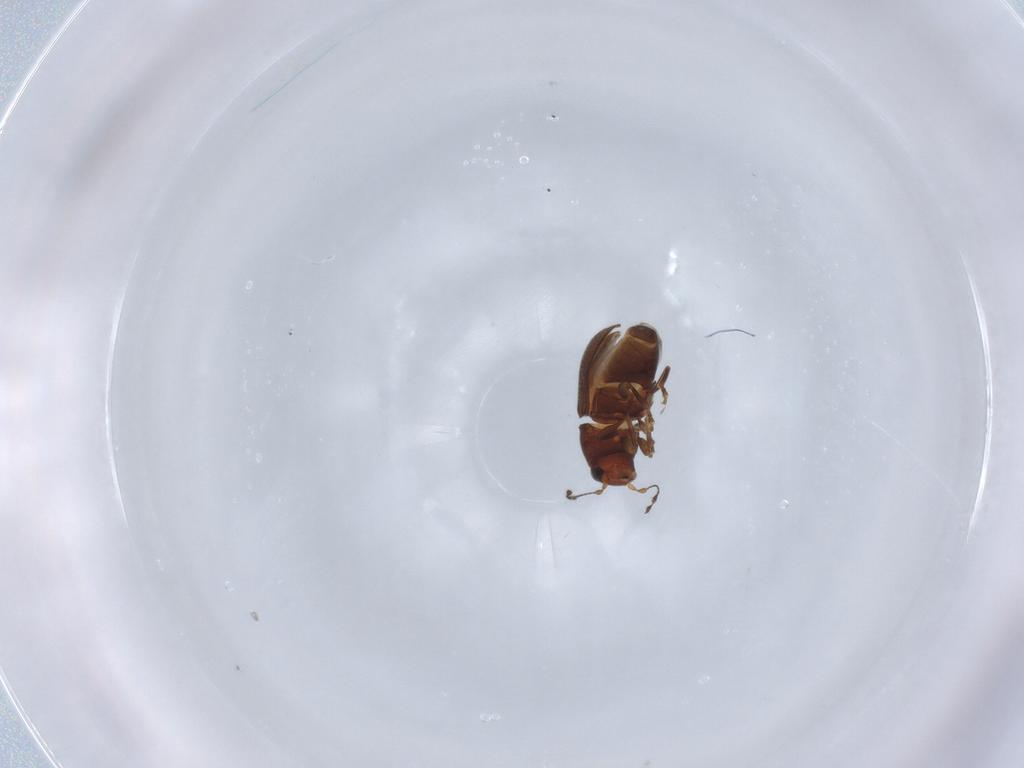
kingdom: Animalia
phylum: Arthropoda
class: Insecta
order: Coleoptera
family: Anthribidae
